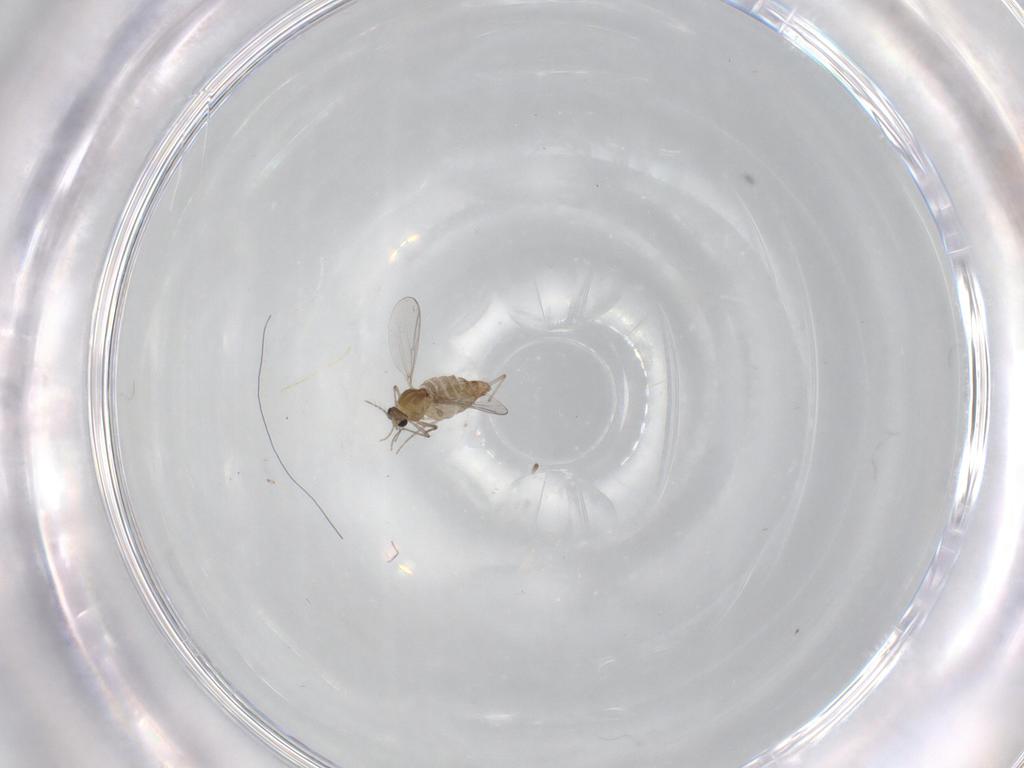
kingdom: Animalia
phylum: Arthropoda
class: Insecta
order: Diptera
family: Chironomidae
